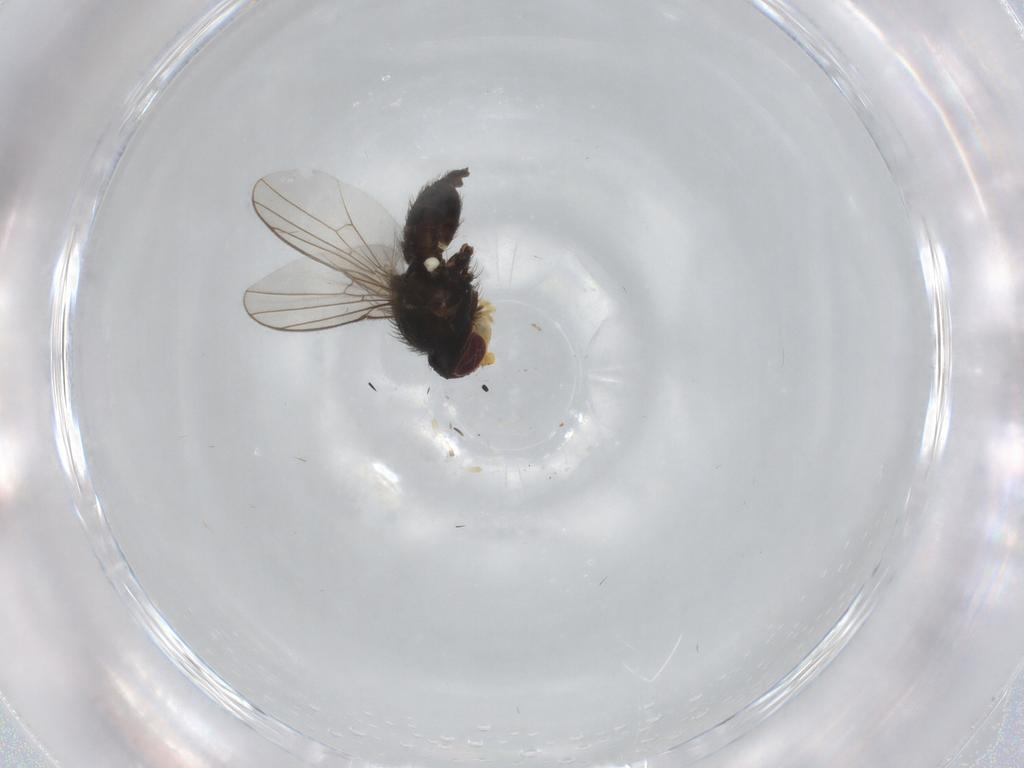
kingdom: Animalia
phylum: Arthropoda
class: Insecta
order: Diptera
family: Agromyzidae
